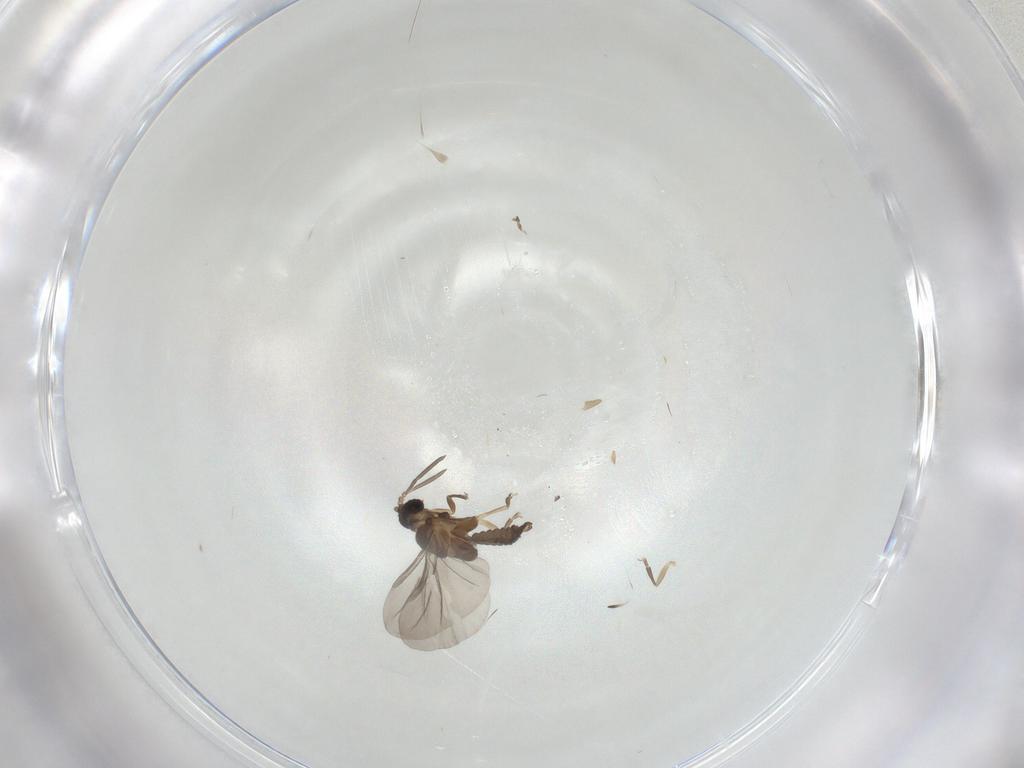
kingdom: Animalia
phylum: Arthropoda
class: Insecta
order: Strepsiptera
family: Halictophagidae
